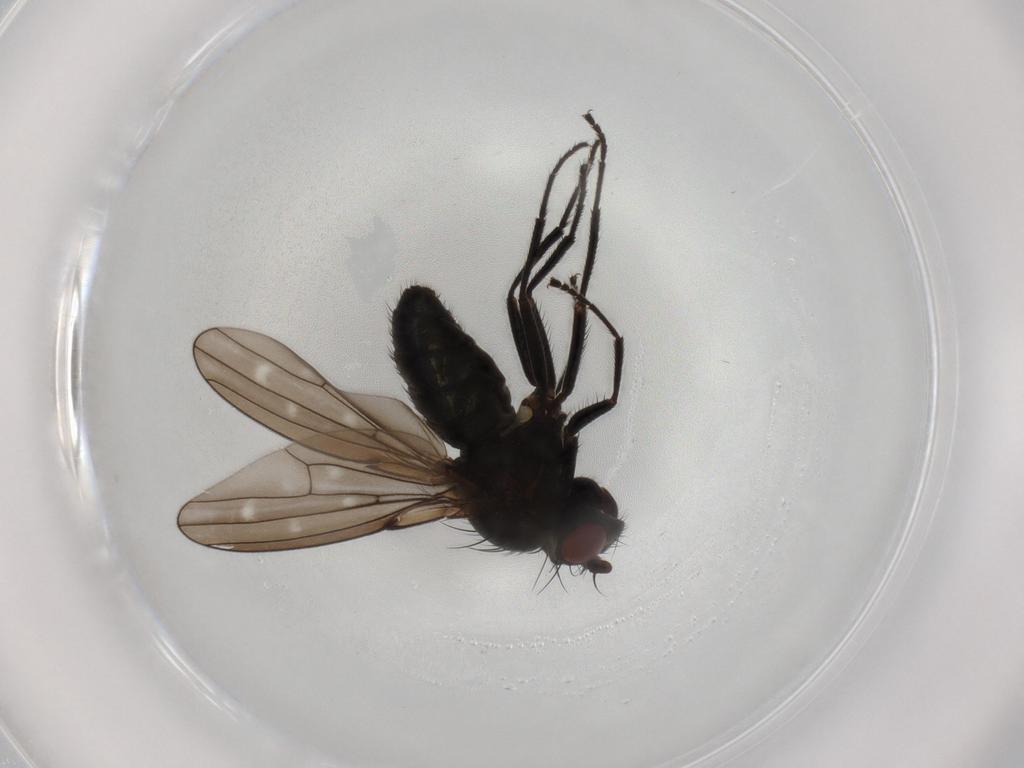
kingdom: Animalia
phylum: Arthropoda
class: Insecta
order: Diptera
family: Ephydridae
